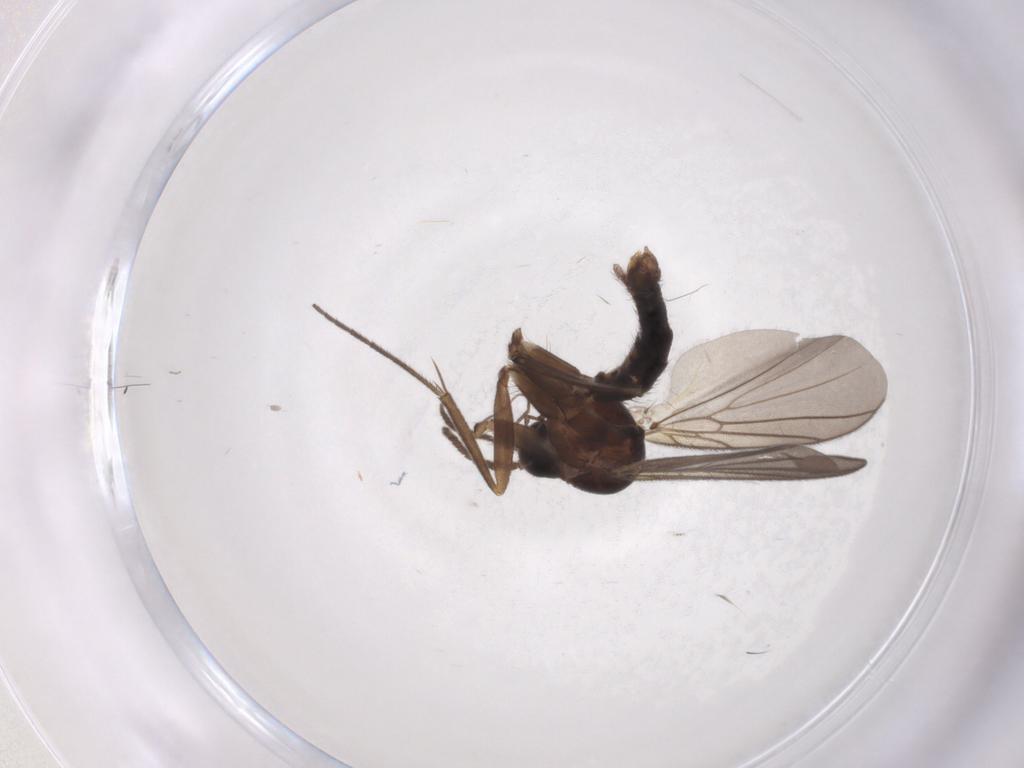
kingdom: Animalia
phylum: Arthropoda
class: Insecta
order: Diptera
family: Mycetophilidae
